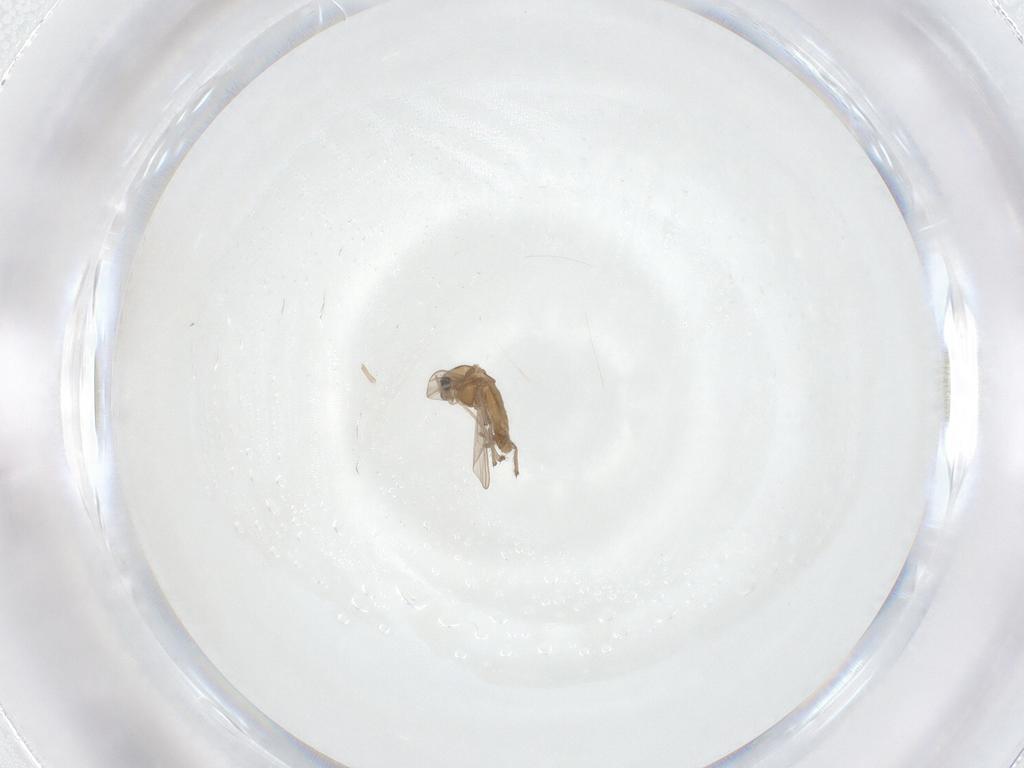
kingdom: Animalia
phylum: Arthropoda
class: Insecta
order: Diptera
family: Chironomidae
